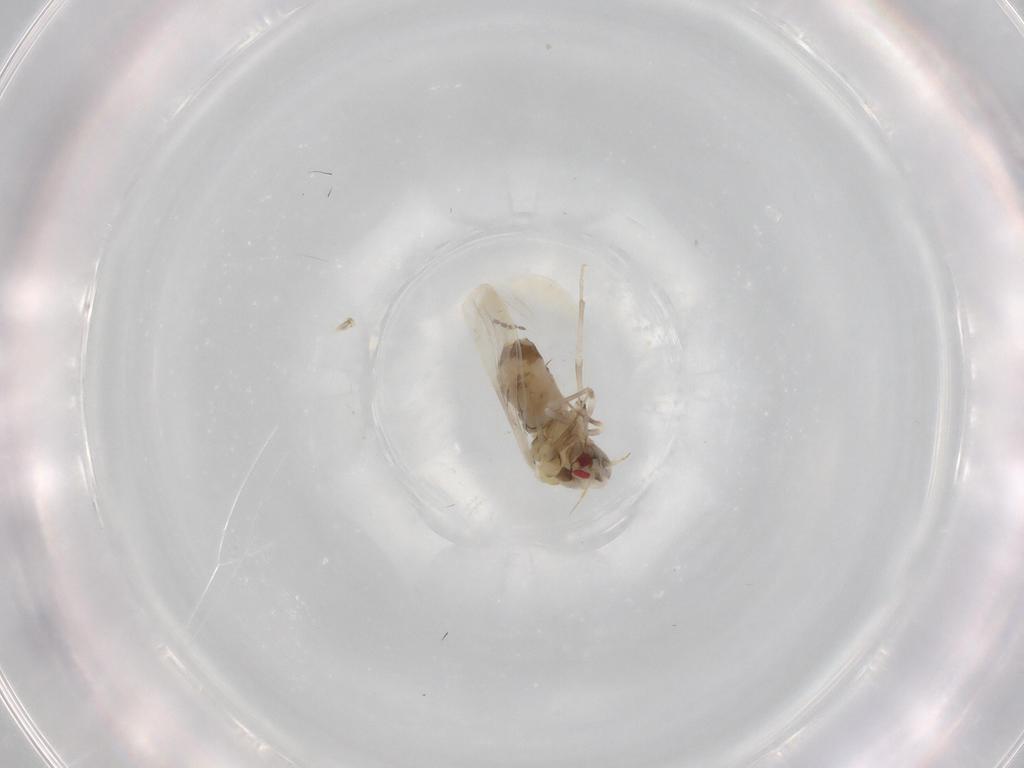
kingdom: Animalia
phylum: Arthropoda
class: Insecta
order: Hemiptera
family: Aleyrodidae
